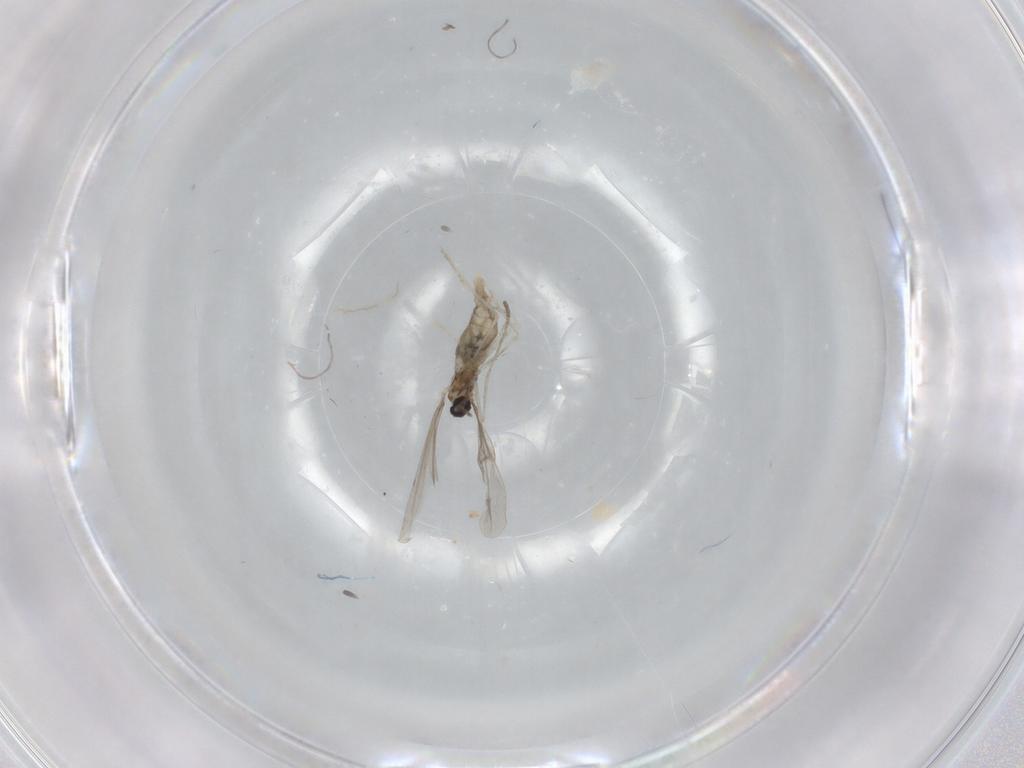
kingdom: Animalia
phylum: Arthropoda
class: Insecta
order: Diptera
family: Cecidomyiidae
